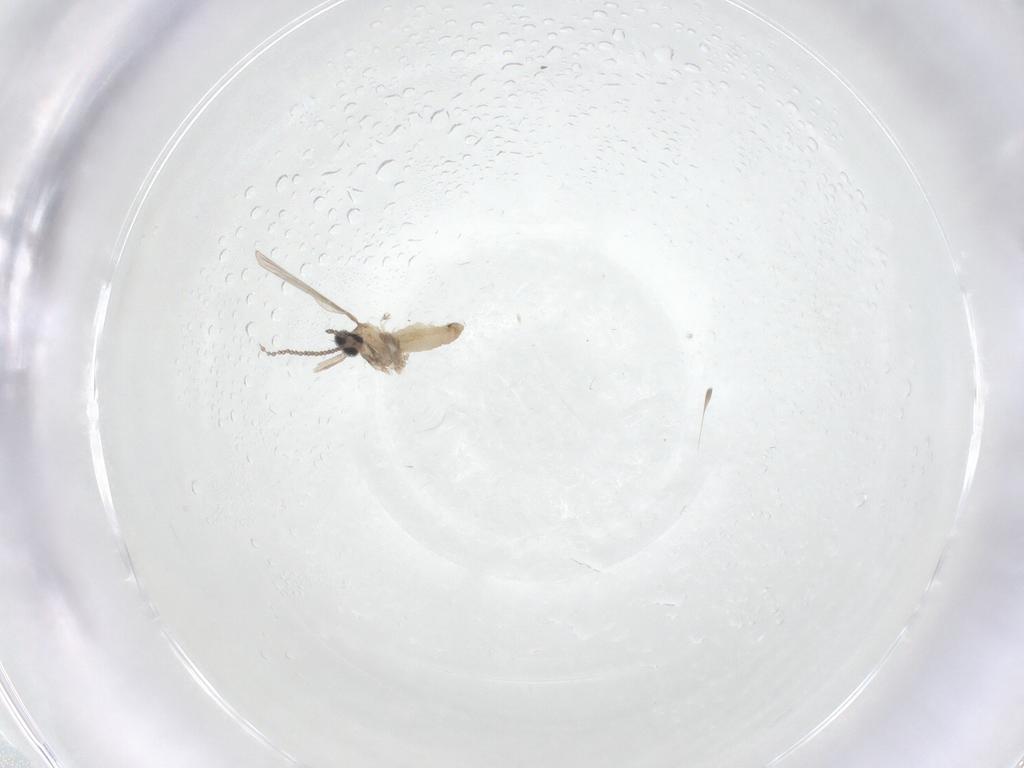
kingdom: Animalia
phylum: Arthropoda
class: Insecta
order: Diptera
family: Cecidomyiidae
